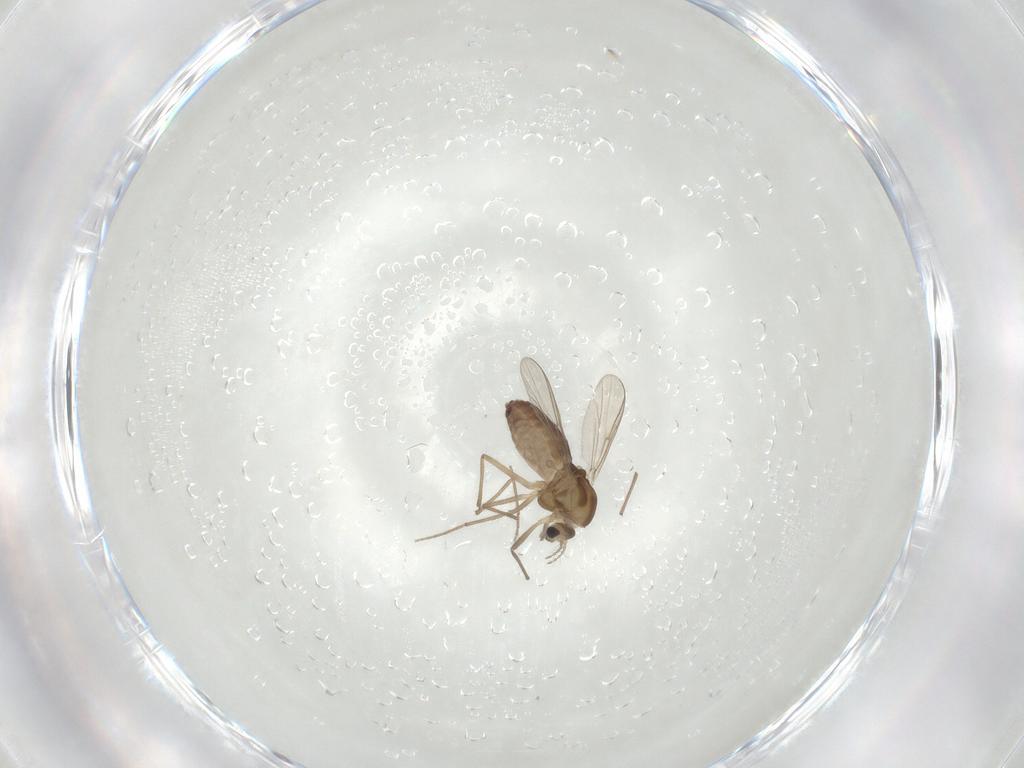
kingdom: Animalia
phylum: Arthropoda
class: Insecta
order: Diptera
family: Chironomidae
